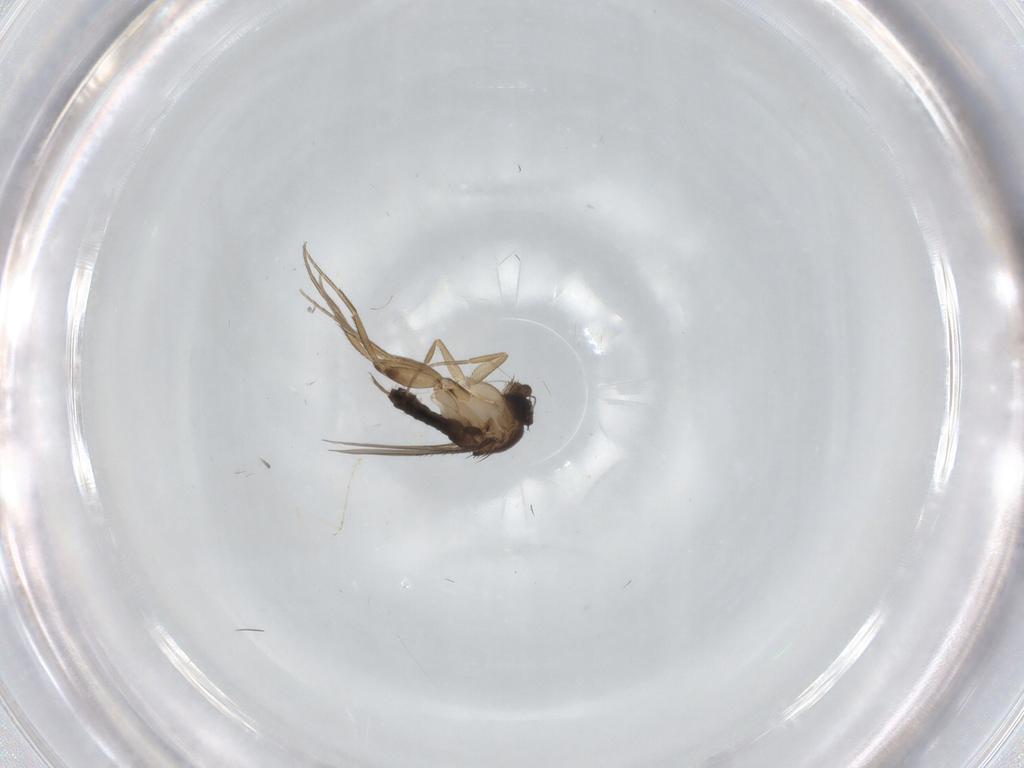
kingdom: Animalia
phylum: Arthropoda
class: Insecta
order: Diptera
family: Phoridae
